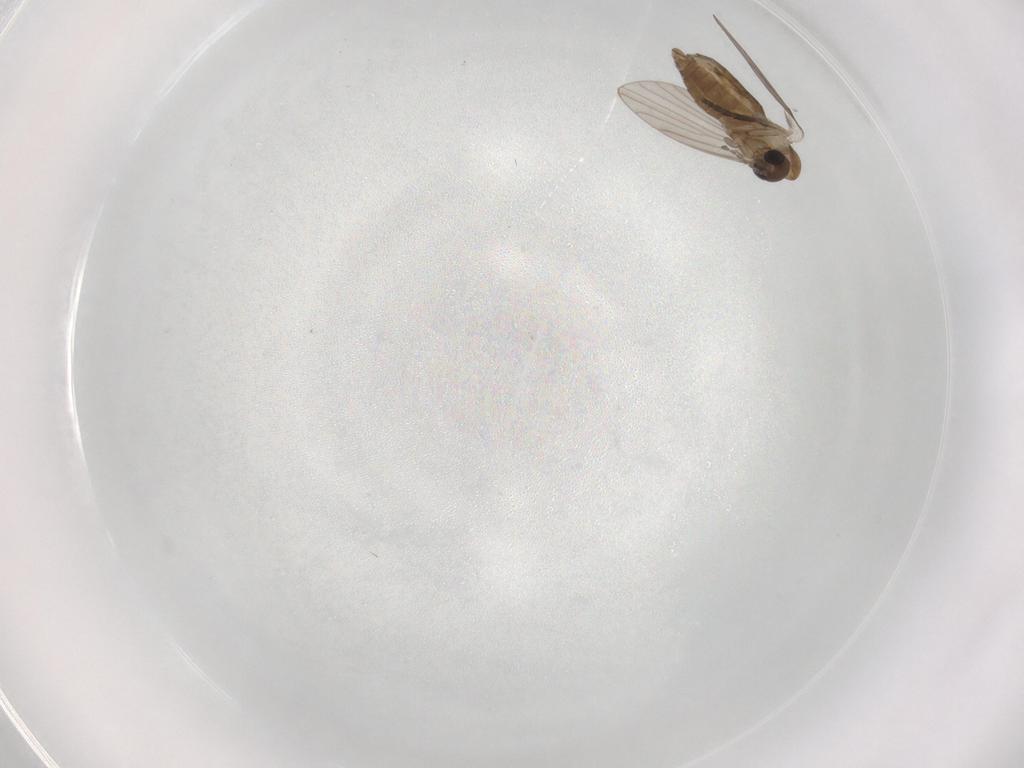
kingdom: Animalia
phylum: Arthropoda
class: Insecta
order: Diptera
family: Psychodidae
